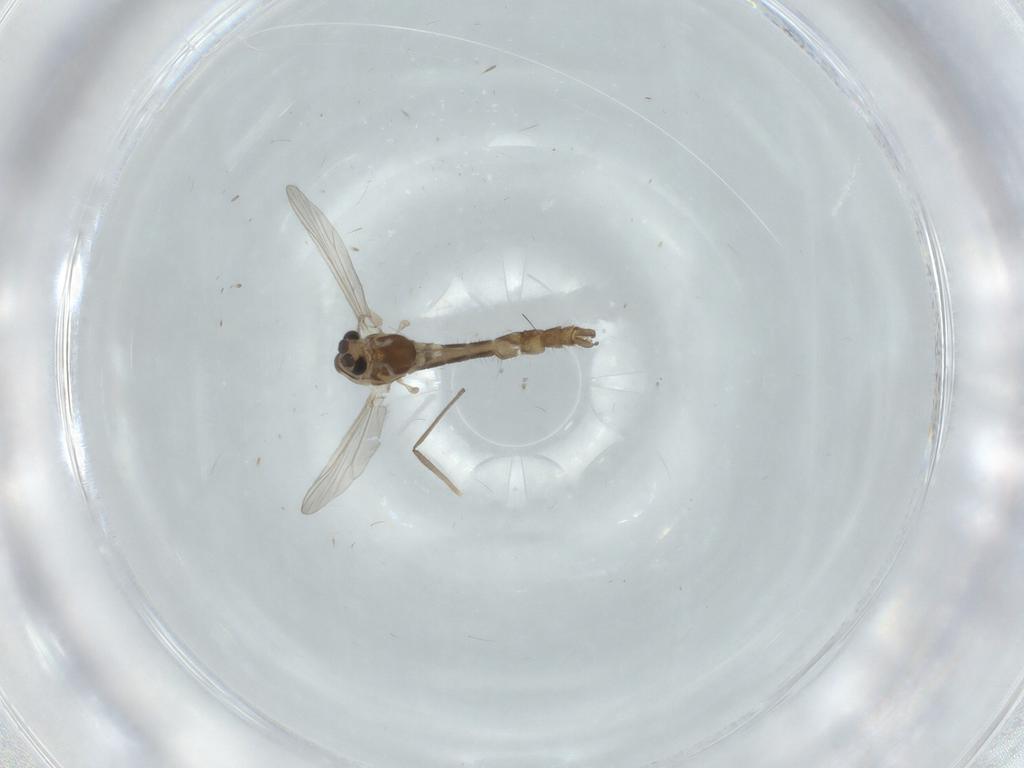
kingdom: Animalia
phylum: Arthropoda
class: Insecta
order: Diptera
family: Chironomidae
